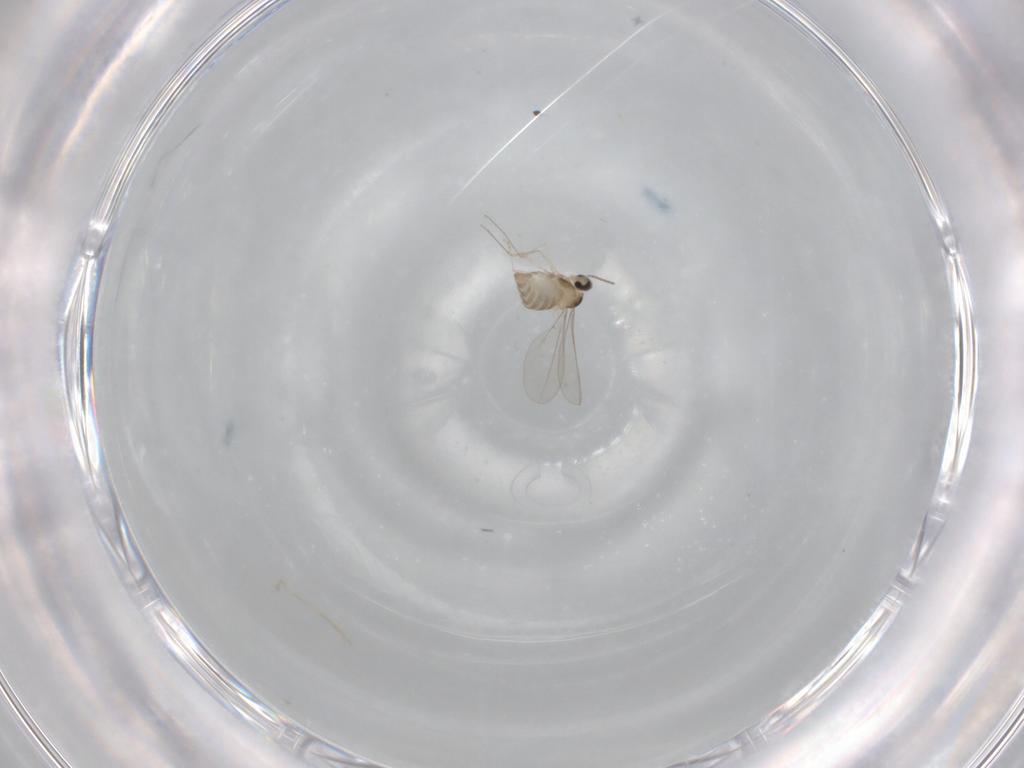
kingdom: Animalia
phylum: Arthropoda
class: Insecta
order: Diptera
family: Cecidomyiidae
